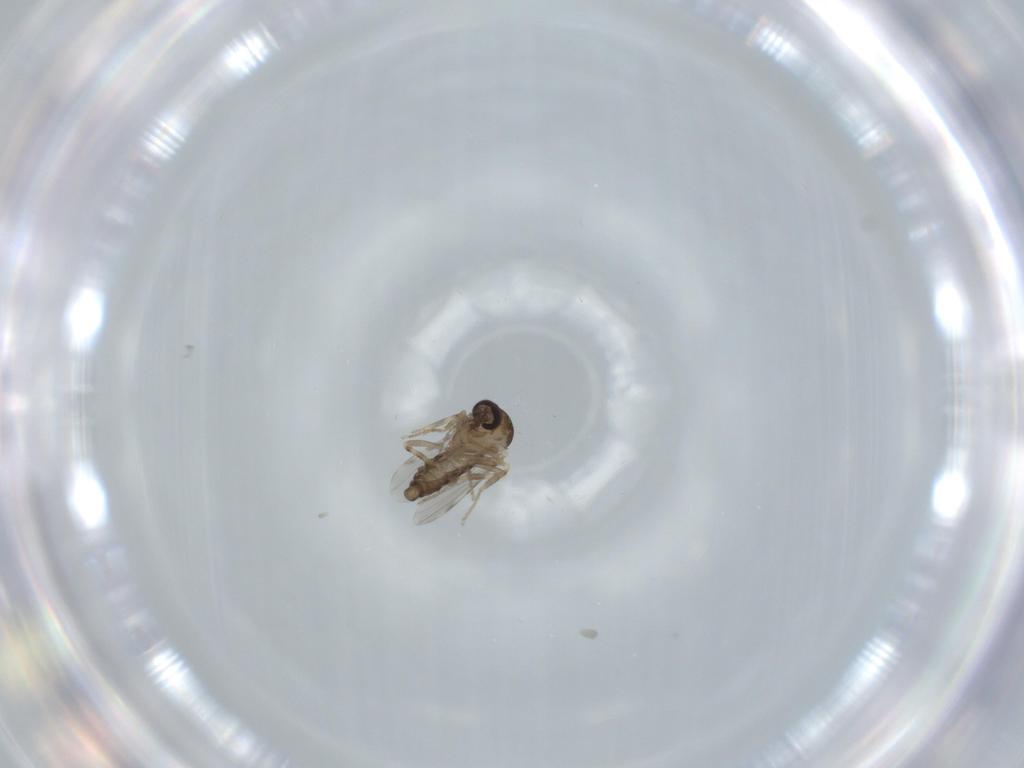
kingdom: Animalia
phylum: Arthropoda
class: Insecta
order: Diptera
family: Ceratopogonidae
